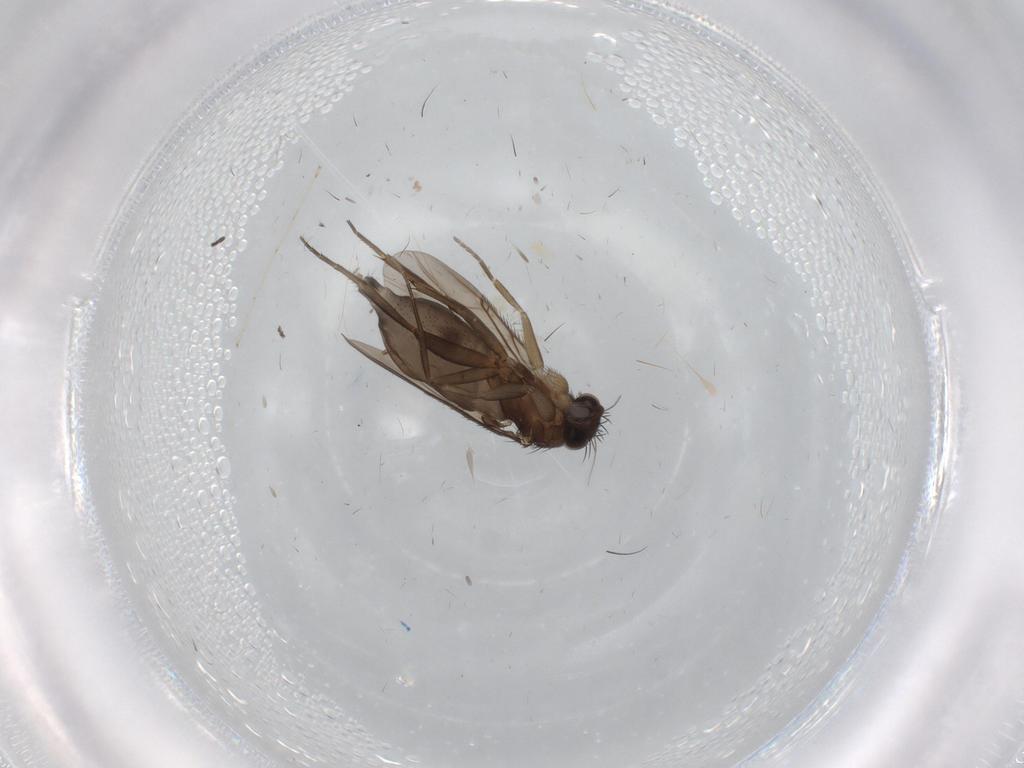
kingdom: Animalia
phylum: Arthropoda
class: Insecta
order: Diptera
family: Phoridae
